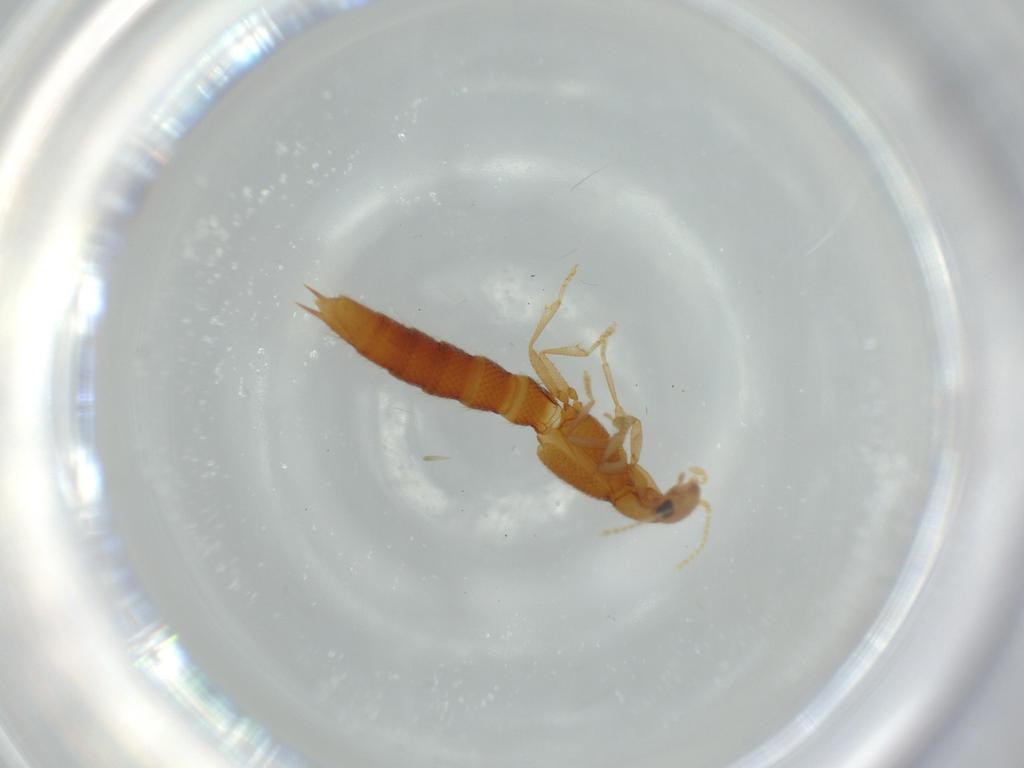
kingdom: Animalia
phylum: Arthropoda
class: Insecta
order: Coleoptera
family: Staphylinidae
